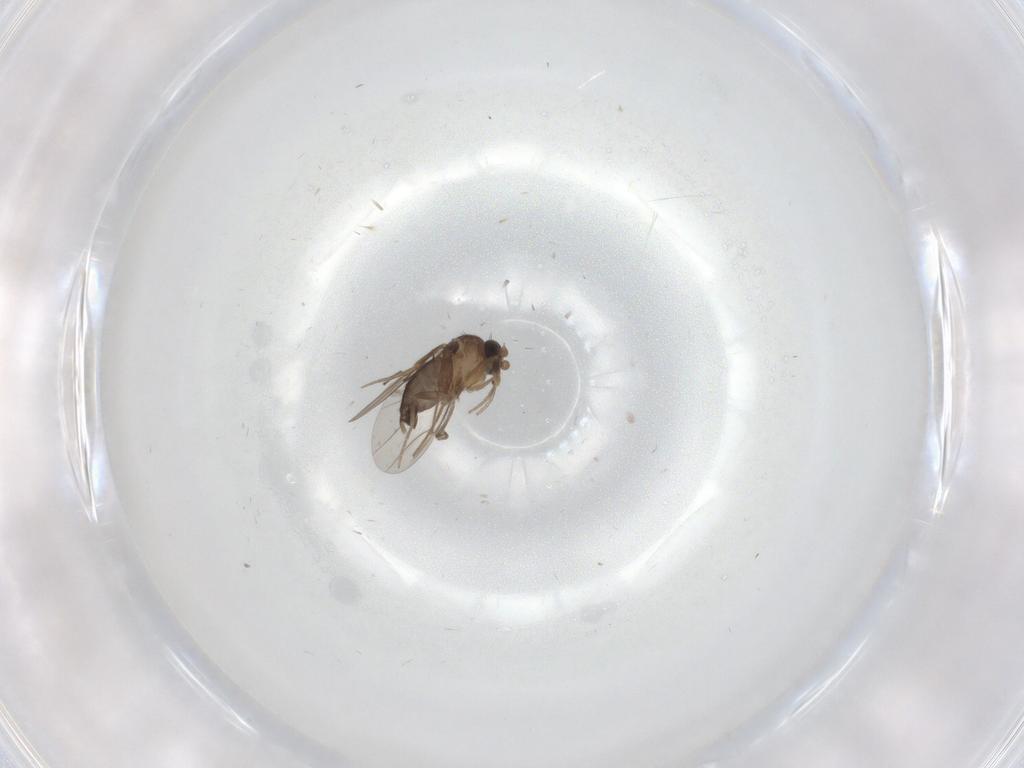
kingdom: Animalia
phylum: Arthropoda
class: Insecta
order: Diptera
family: Phoridae
